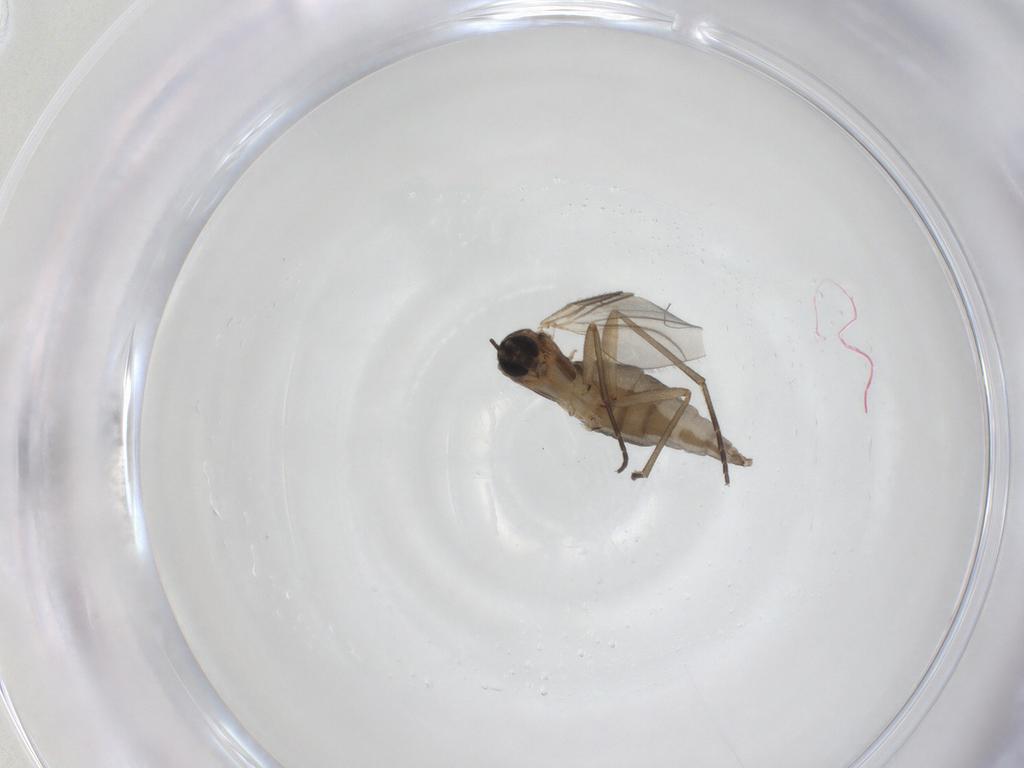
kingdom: Animalia
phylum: Arthropoda
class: Insecta
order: Diptera
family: Sciaridae
